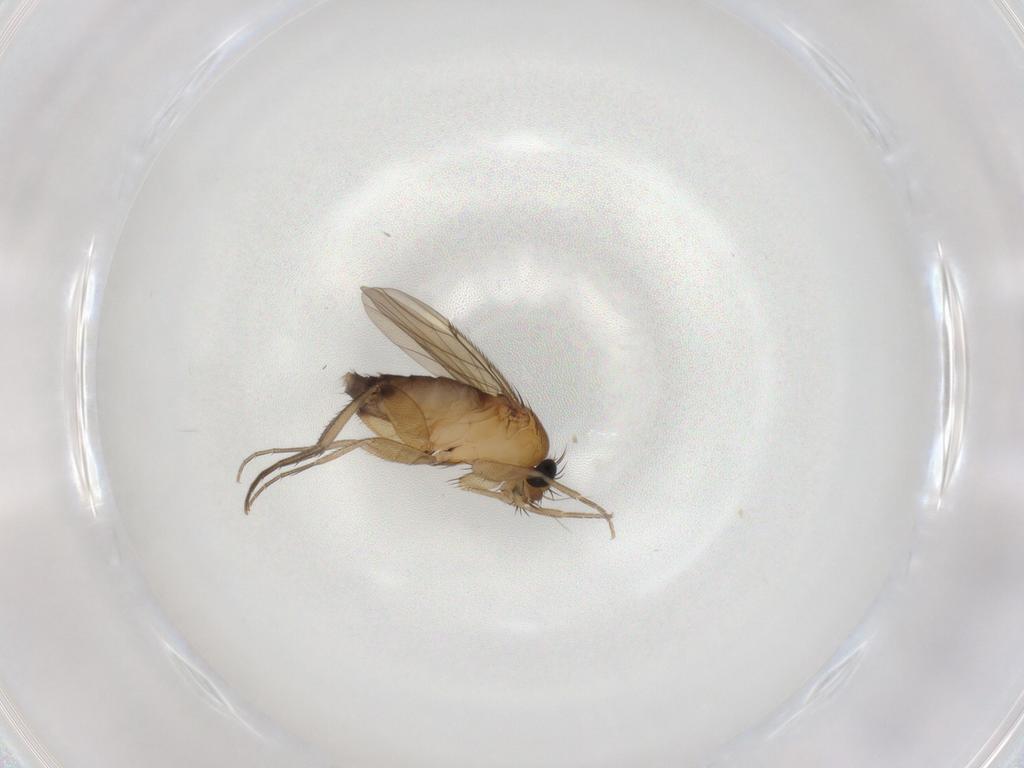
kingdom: Animalia
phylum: Arthropoda
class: Insecta
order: Diptera
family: Phoridae
